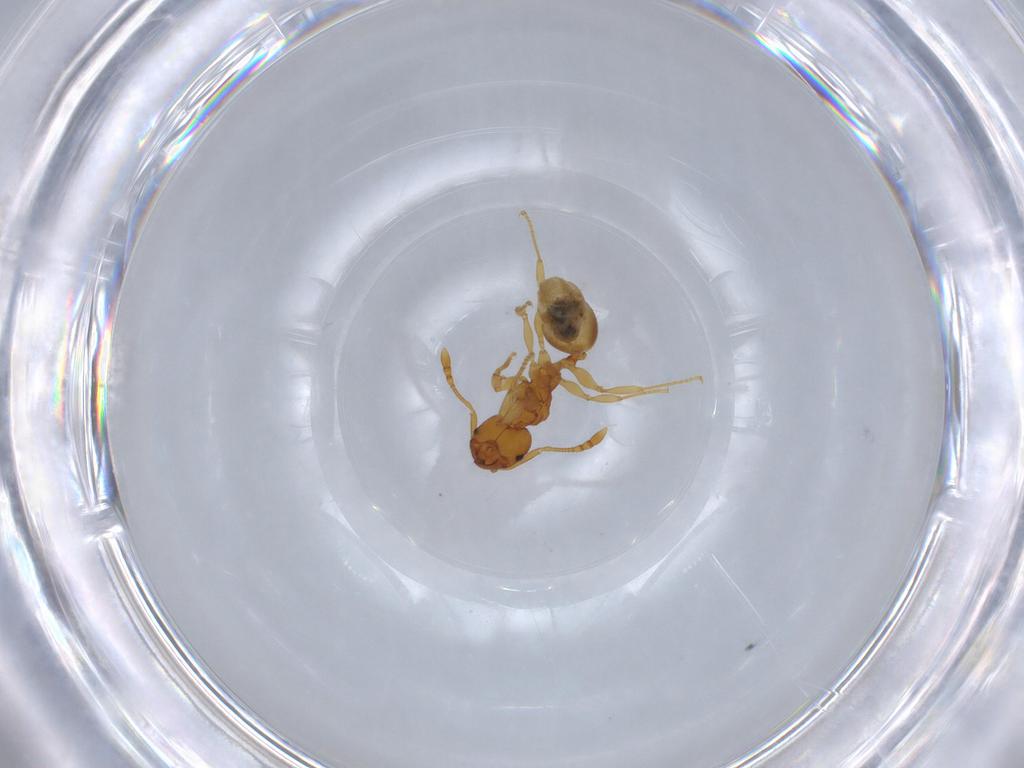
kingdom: Animalia
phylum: Arthropoda
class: Insecta
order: Hymenoptera
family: Formicidae
